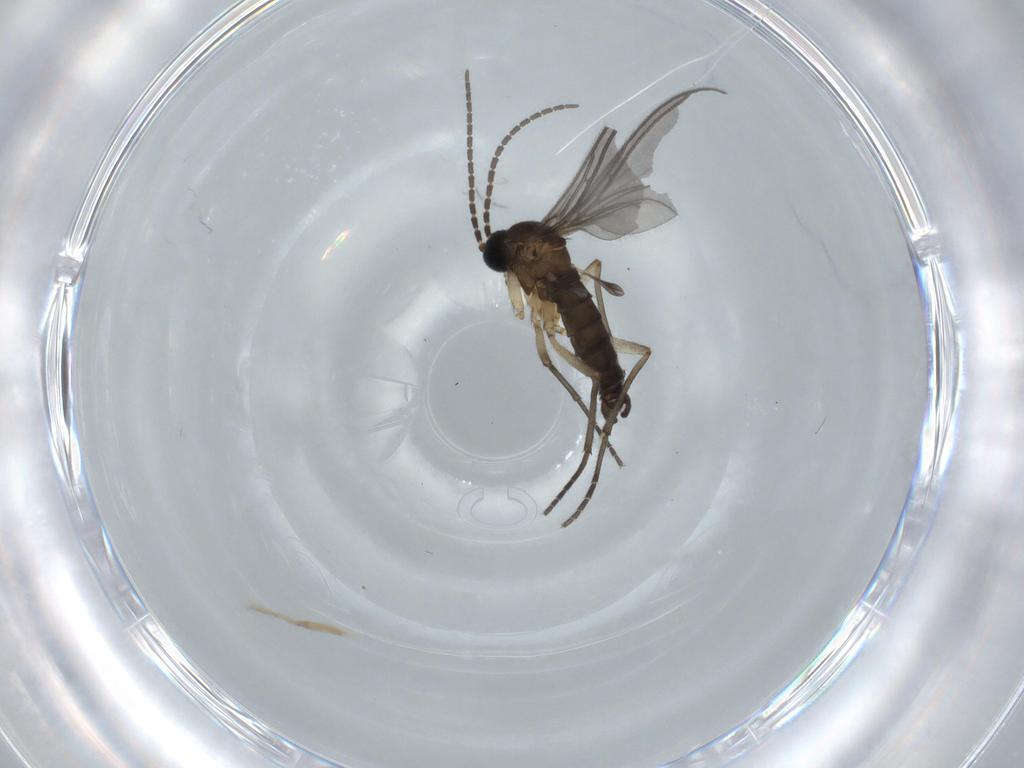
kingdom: Animalia
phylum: Arthropoda
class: Insecta
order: Diptera
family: Sciaridae
